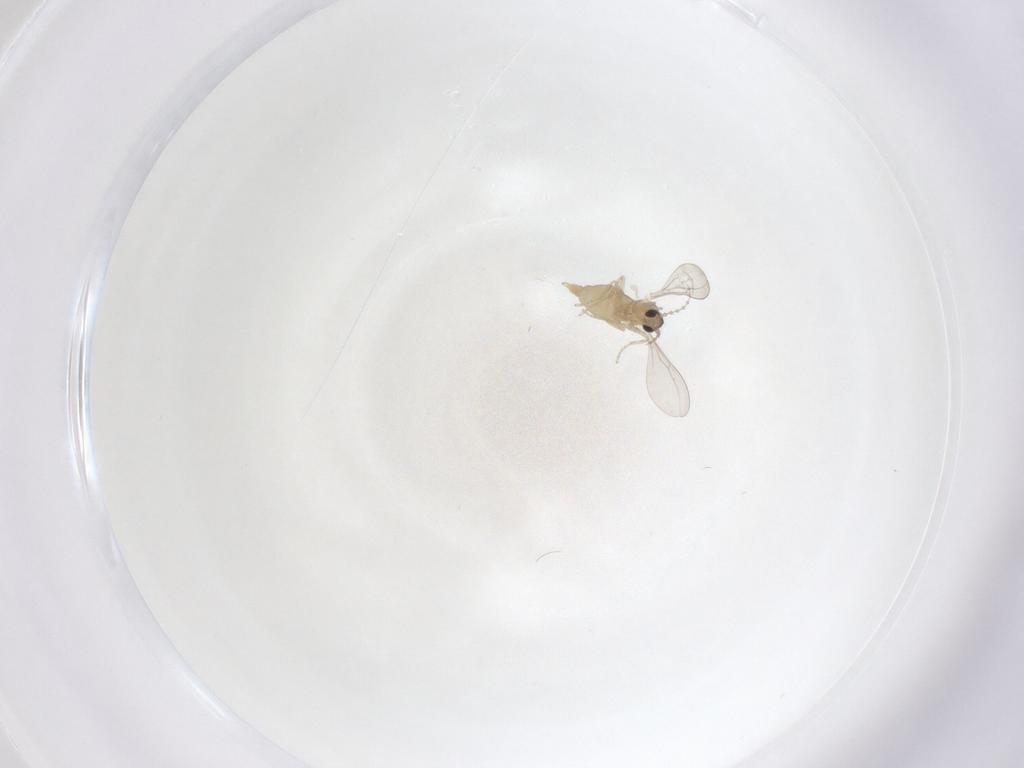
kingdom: Animalia
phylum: Arthropoda
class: Insecta
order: Diptera
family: Cecidomyiidae
